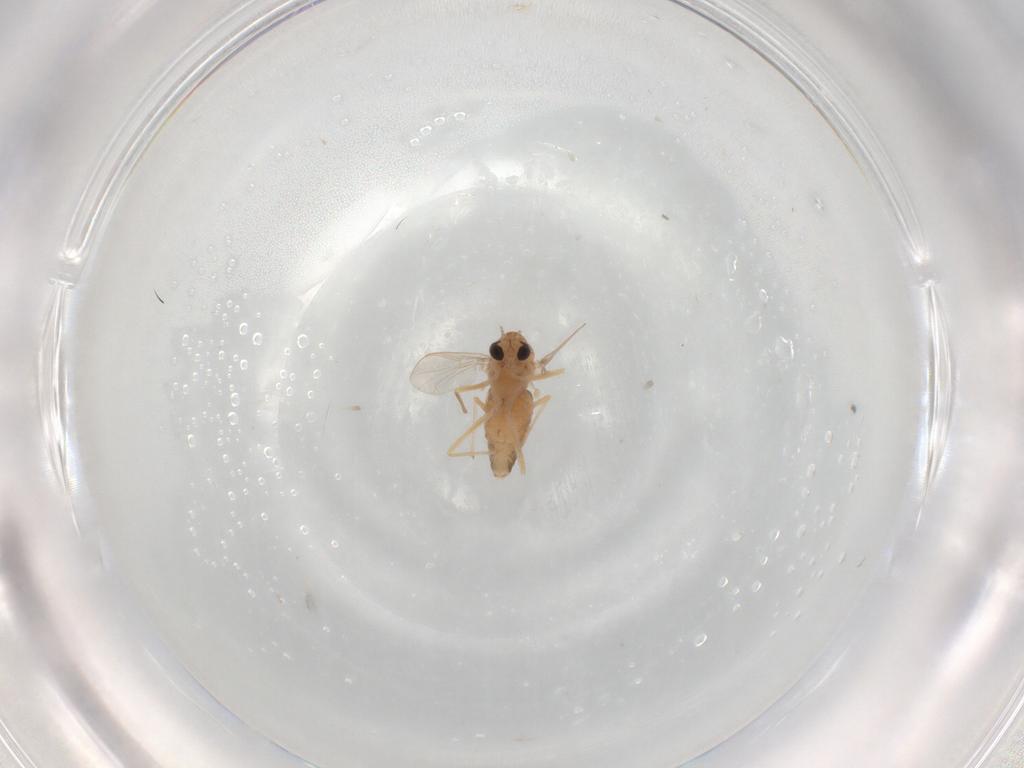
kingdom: Animalia
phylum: Arthropoda
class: Insecta
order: Diptera
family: Chironomidae
